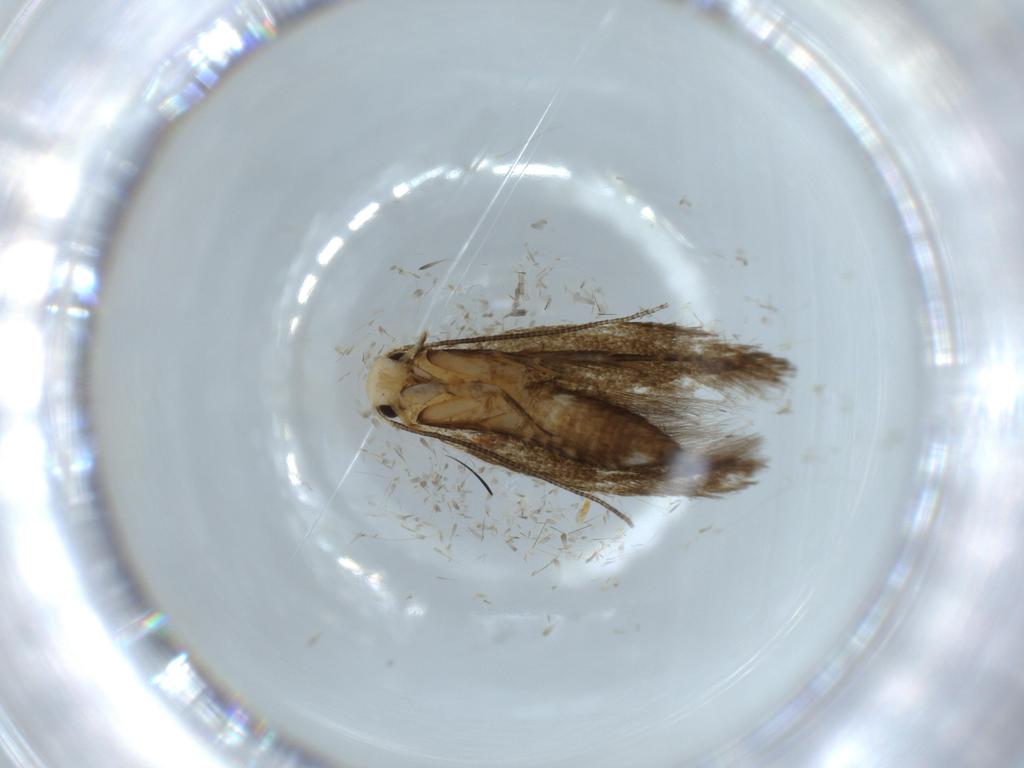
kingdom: Animalia
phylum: Arthropoda
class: Insecta
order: Lepidoptera
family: Tineidae
